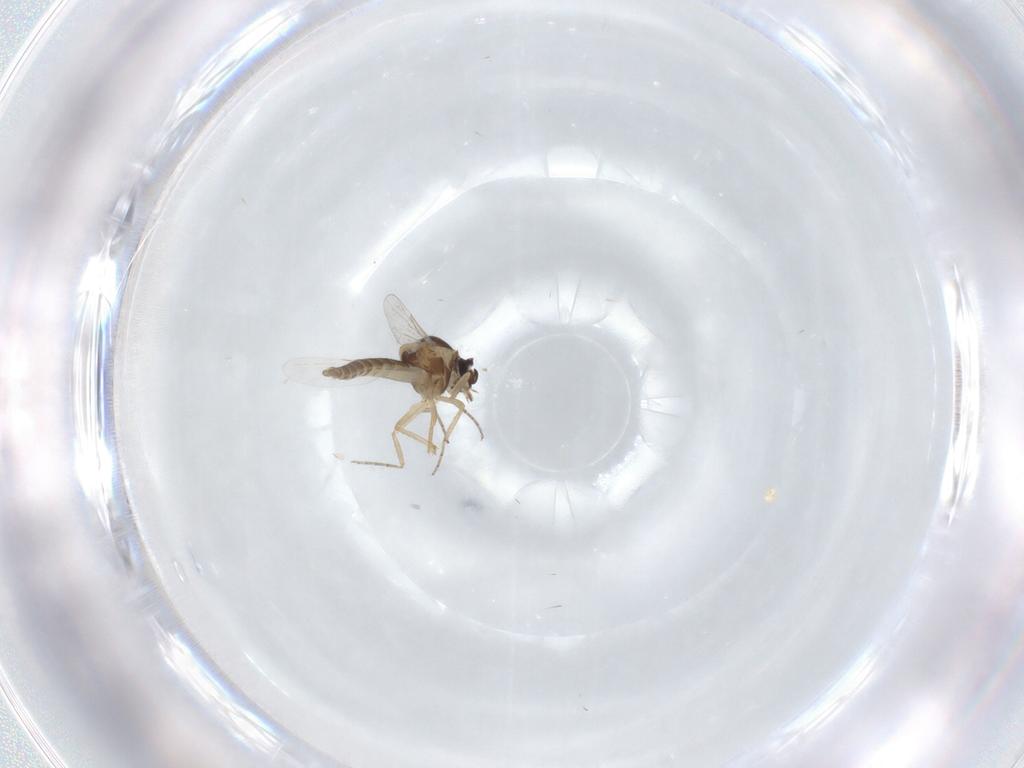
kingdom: Animalia
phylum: Arthropoda
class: Insecta
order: Diptera
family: Ceratopogonidae
